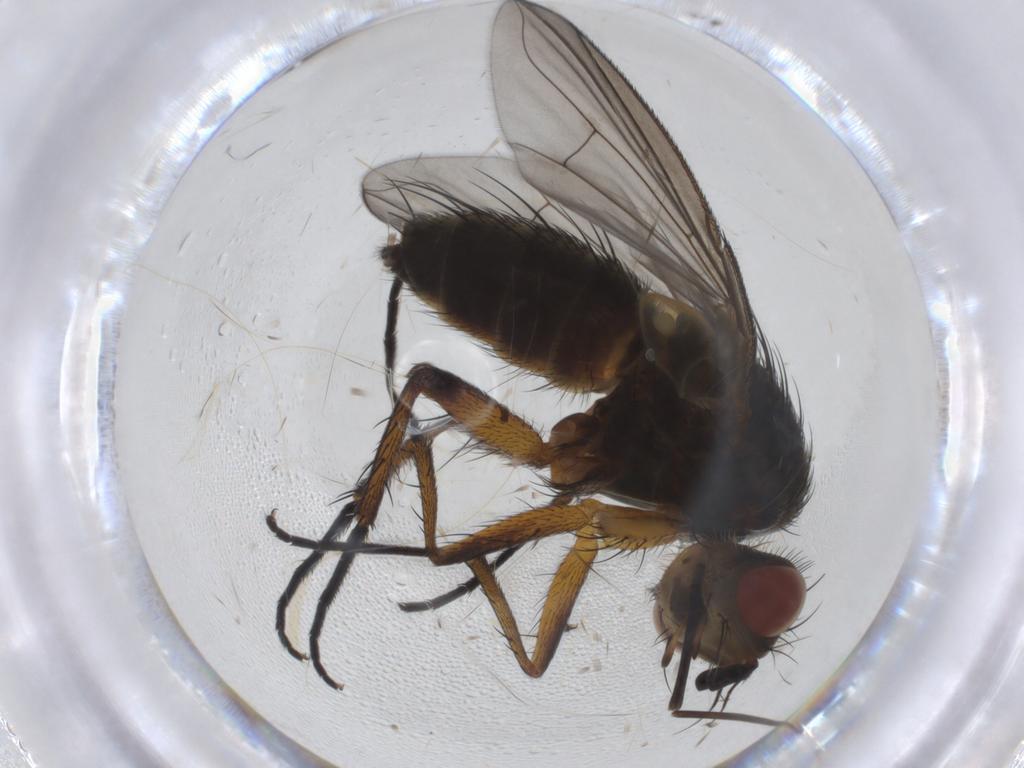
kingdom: Animalia
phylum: Arthropoda
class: Insecta
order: Diptera
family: Tachinidae
